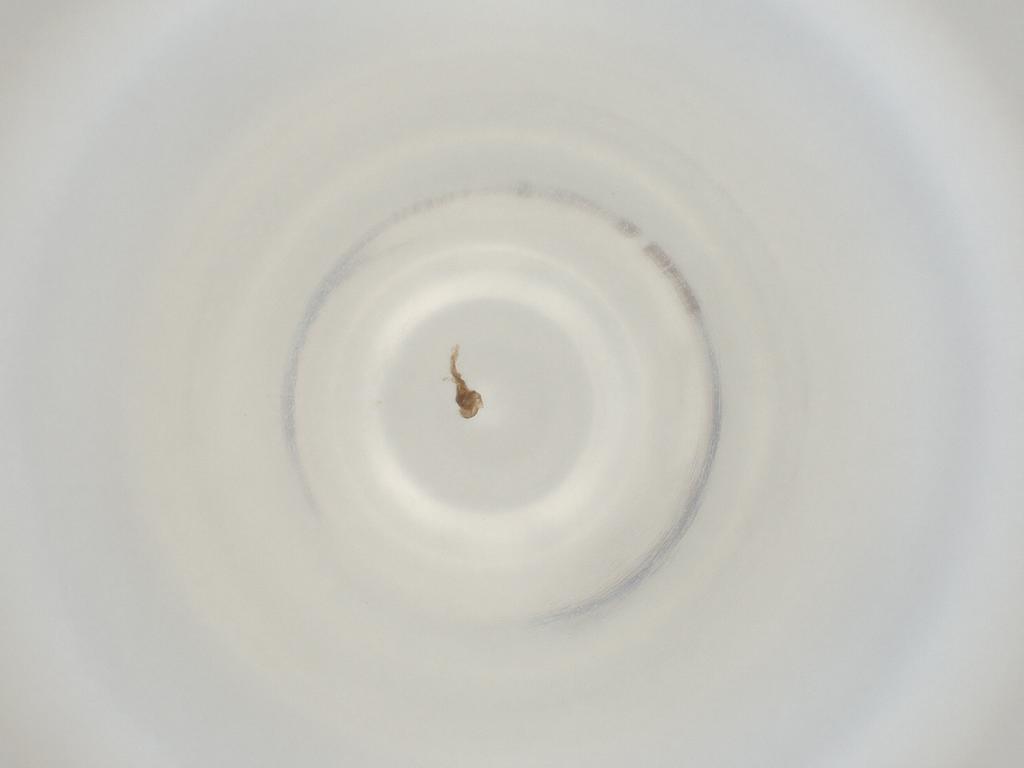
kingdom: Animalia
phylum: Arthropoda
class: Insecta
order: Diptera
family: Cecidomyiidae
